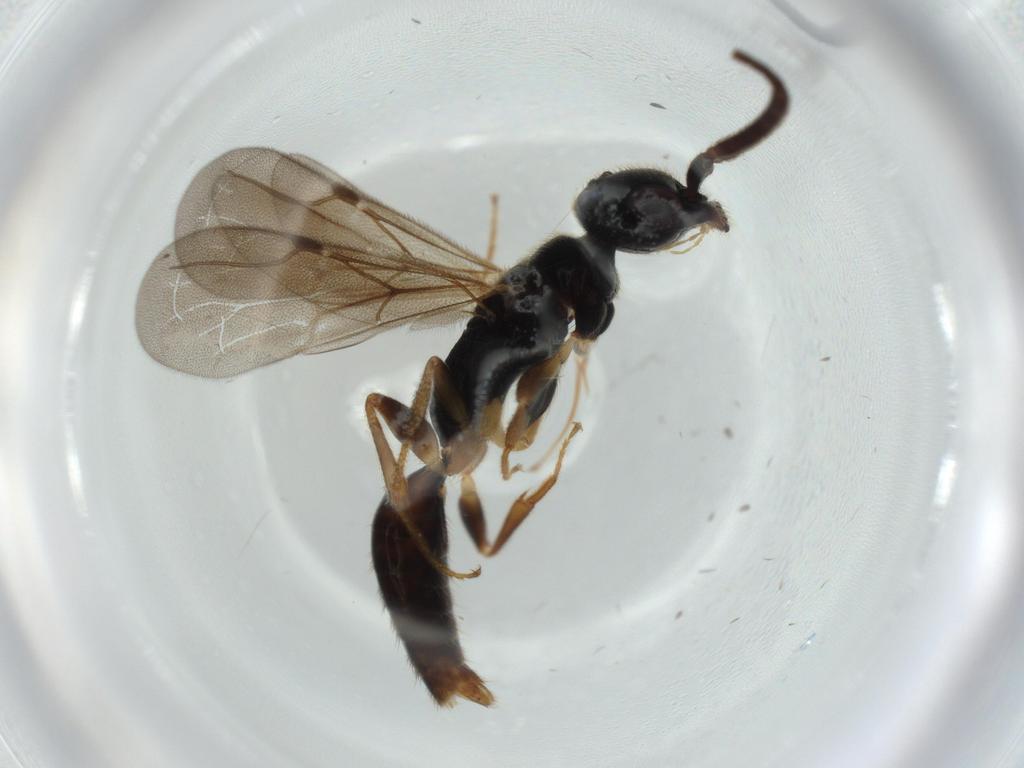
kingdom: Animalia
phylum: Arthropoda
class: Insecta
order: Hymenoptera
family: Bethylidae
